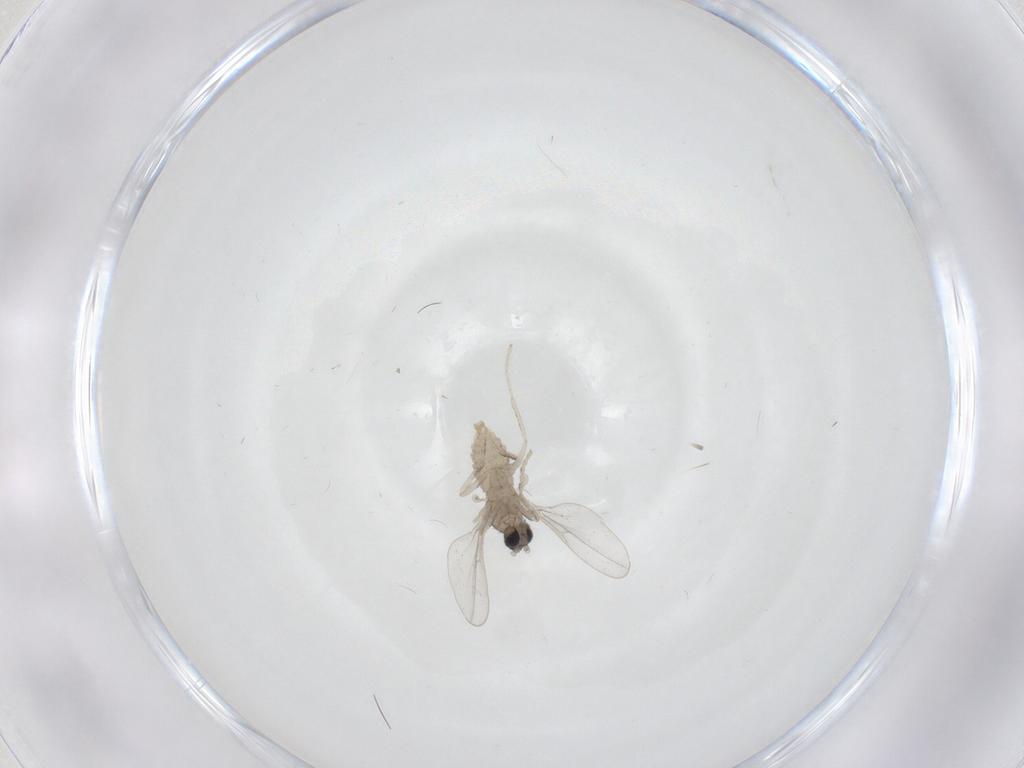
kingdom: Animalia
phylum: Arthropoda
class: Insecta
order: Diptera
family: Cecidomyiidae
